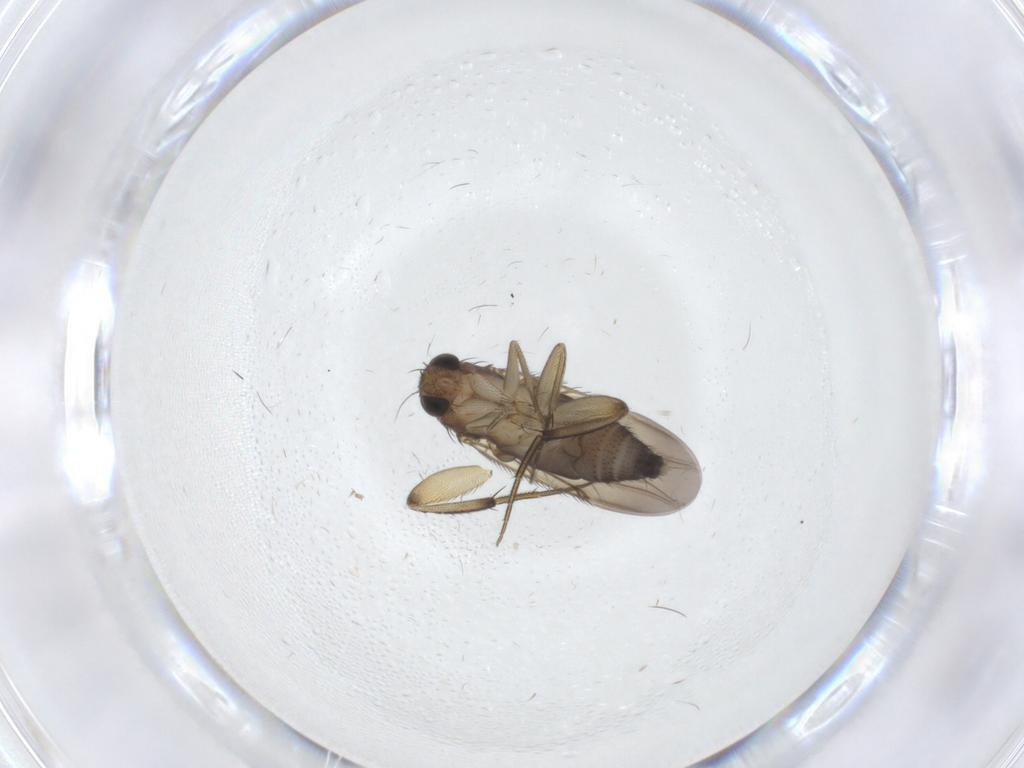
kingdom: Animalia
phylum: Arthropoda
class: Insecta
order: Diptera
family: Phoridae
